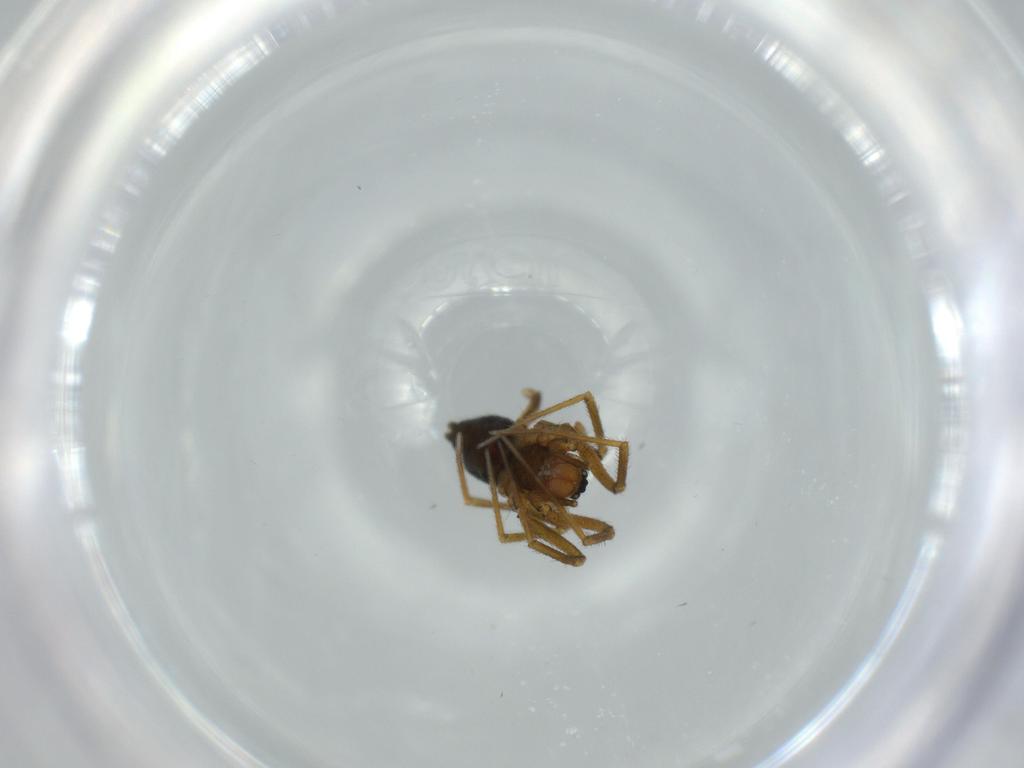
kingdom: Animalia
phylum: Arthropoda
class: Arachnida
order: Araneae
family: Linyphiidae
